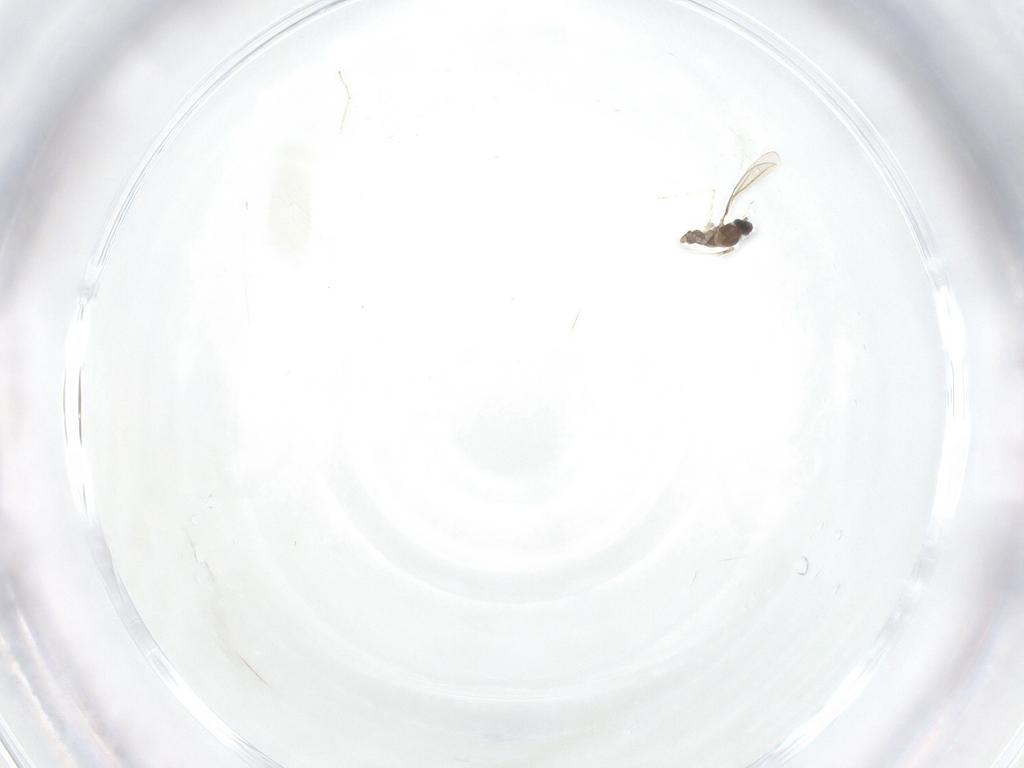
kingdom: Animalia
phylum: Arthropoda
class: Insecta
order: Diptera
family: Cecidomyiidae
